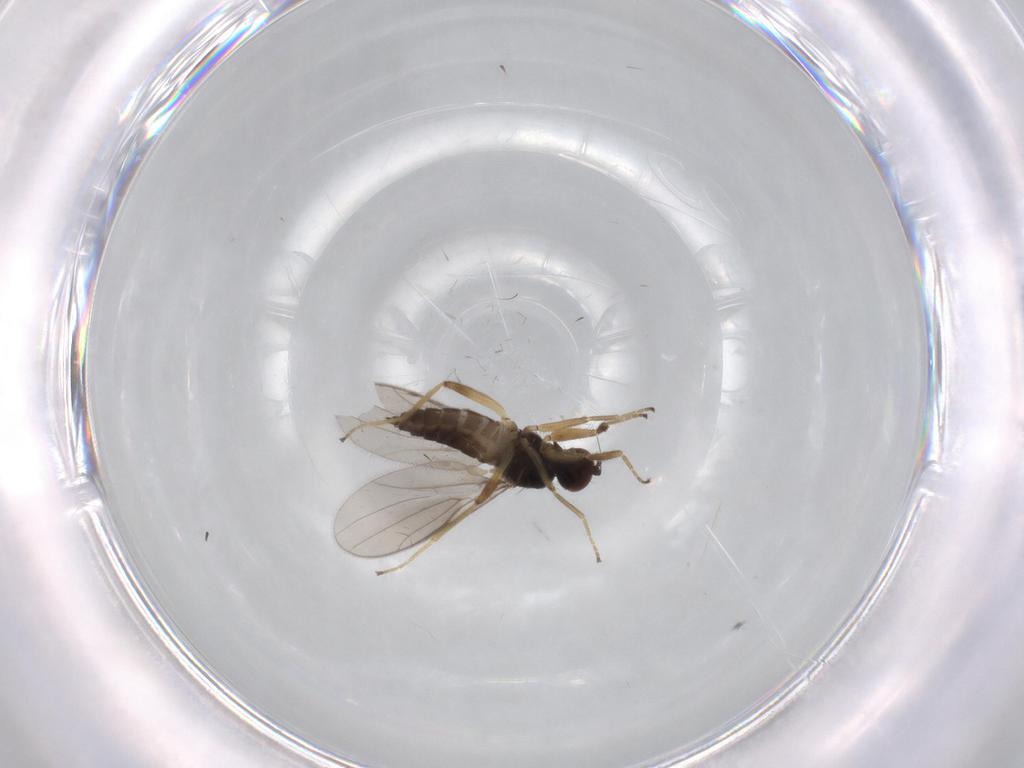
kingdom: Animalia
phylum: Arthropoda
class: Insecta
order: Diptera
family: Hybotidae
